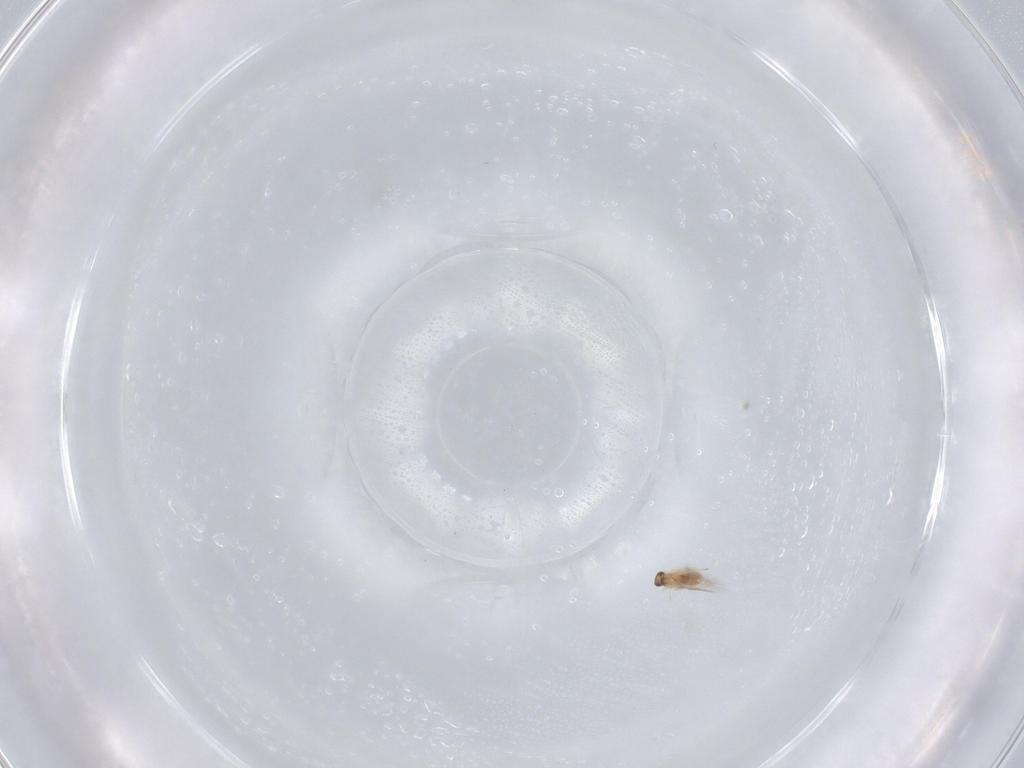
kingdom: Animalia
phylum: Arthropoda
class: Insecta
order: Hymenoptera
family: Mymaridae
